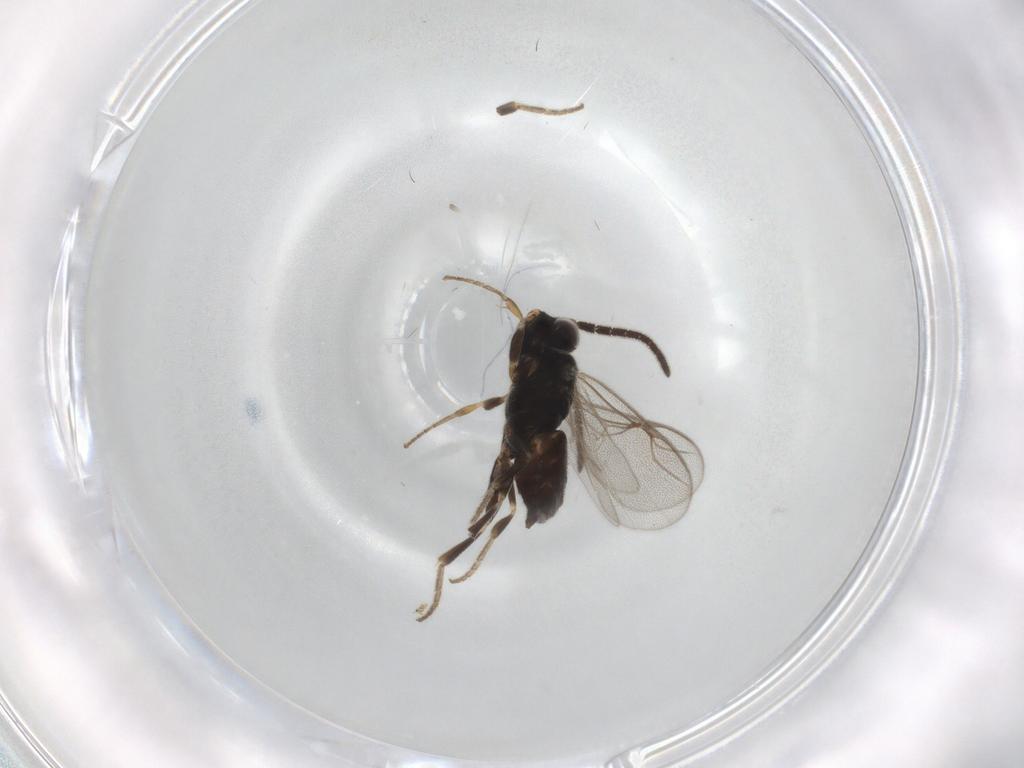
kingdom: Animalia
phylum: Arthropoda
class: Insecta
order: Hymenoptera
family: Dryinidae
